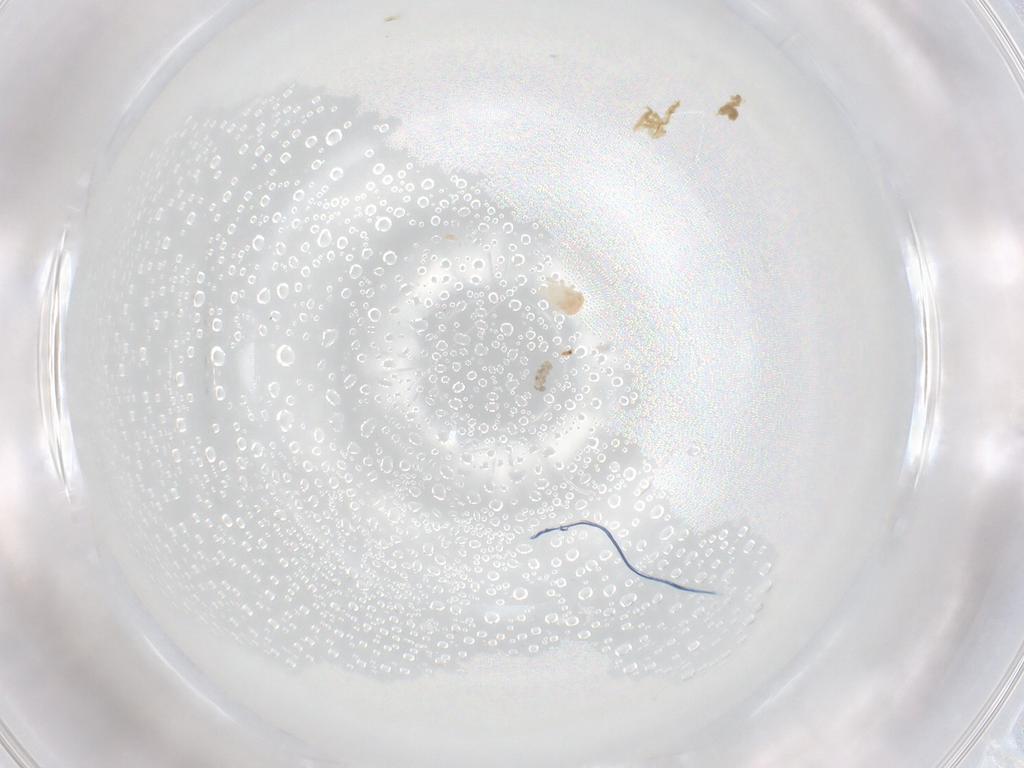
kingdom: Animalia
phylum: Arthropoda
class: Arachnida
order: Mesostigmata
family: Zerconidae
